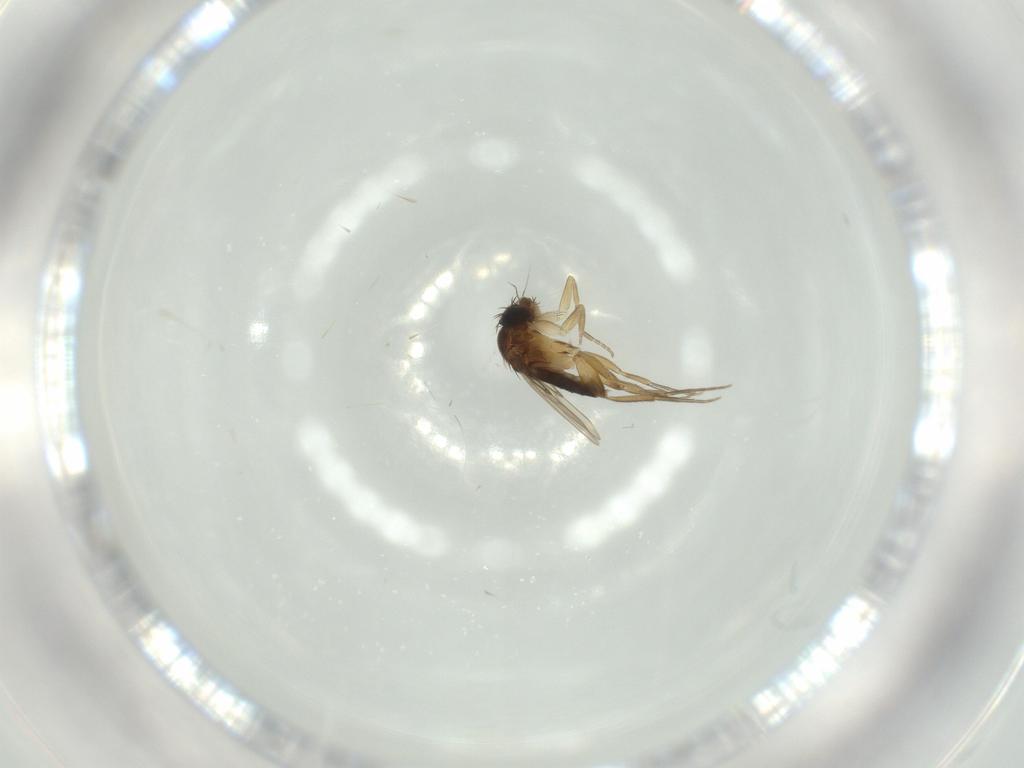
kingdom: Animalia
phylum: Arthropoda
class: Insecta
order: Diptera
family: Phoridae
